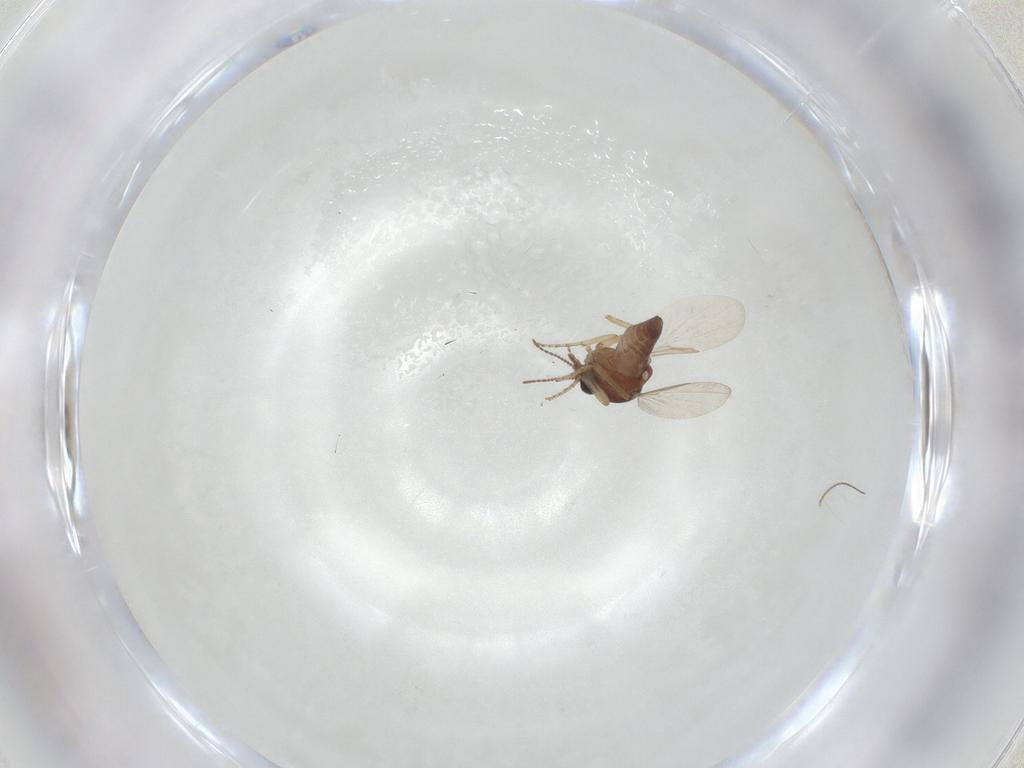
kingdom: Animalia
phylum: Arthropoda
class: Insecta
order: Diptera
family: Ceratopogonidae
